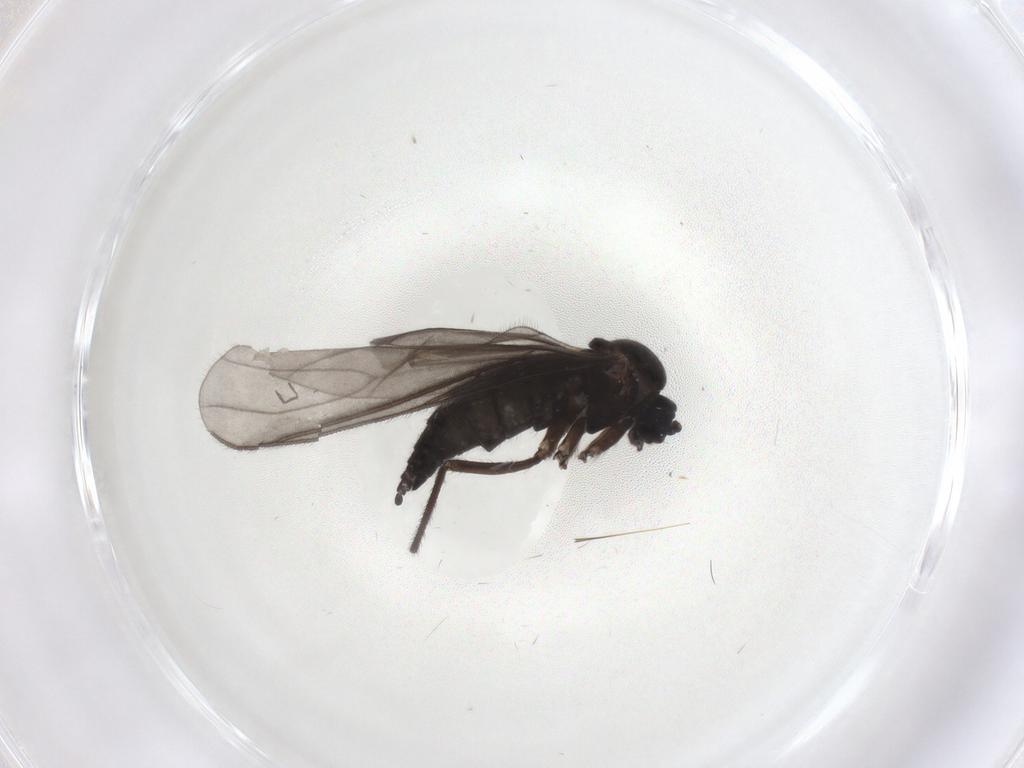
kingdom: Animalia
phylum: Arthropoda
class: Insecta
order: Diptera
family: Sciaridae
